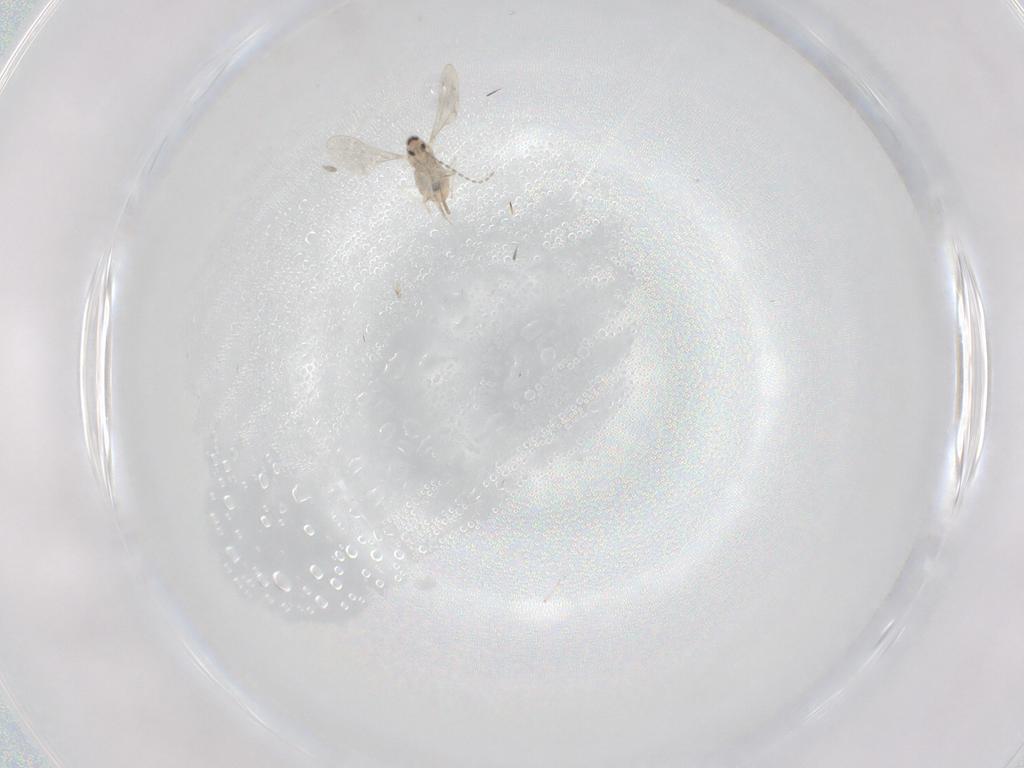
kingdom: Animalia
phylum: Arthropoda
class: Insecta
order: Diptera
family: Cecidomyiidae
